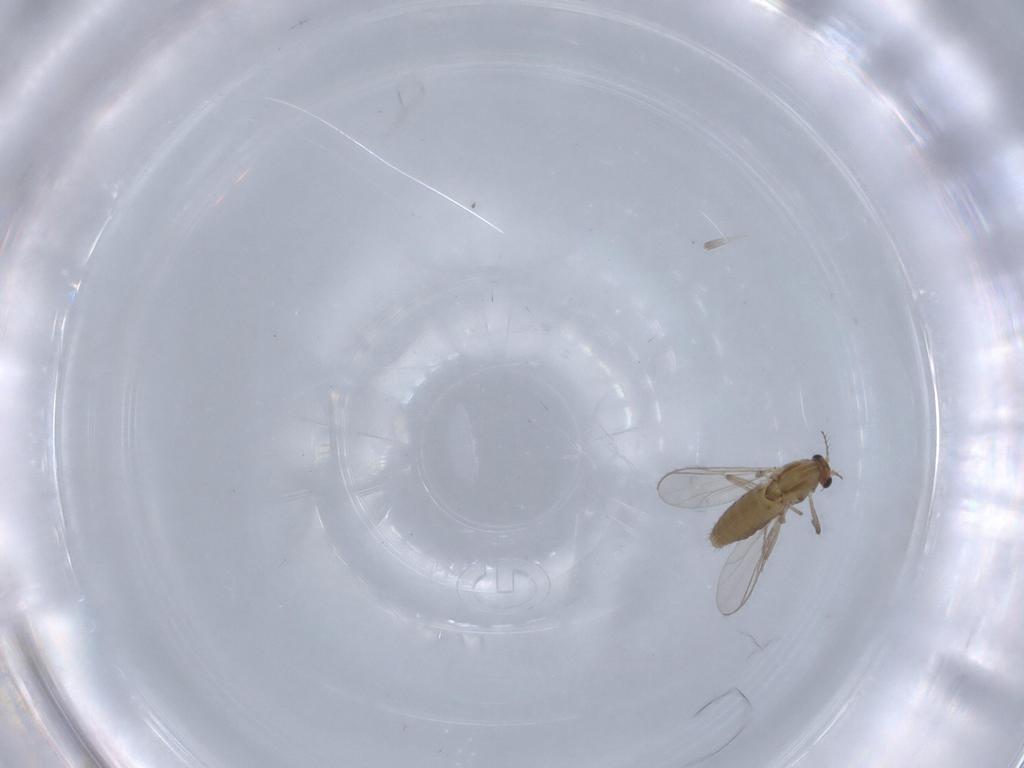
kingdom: Animalia
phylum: Arthropoda
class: Insecta
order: Diptera
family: Chironomidae
